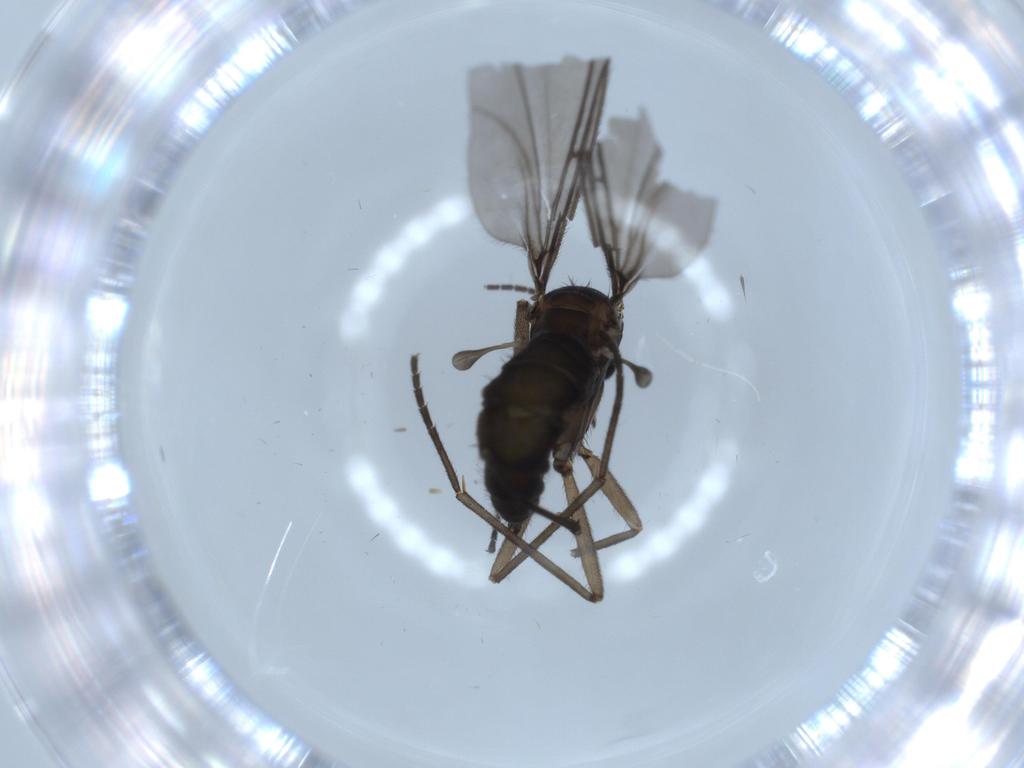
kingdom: Animalia
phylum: Arthropoda
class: Insecta
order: Diptera
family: Sciaridae
